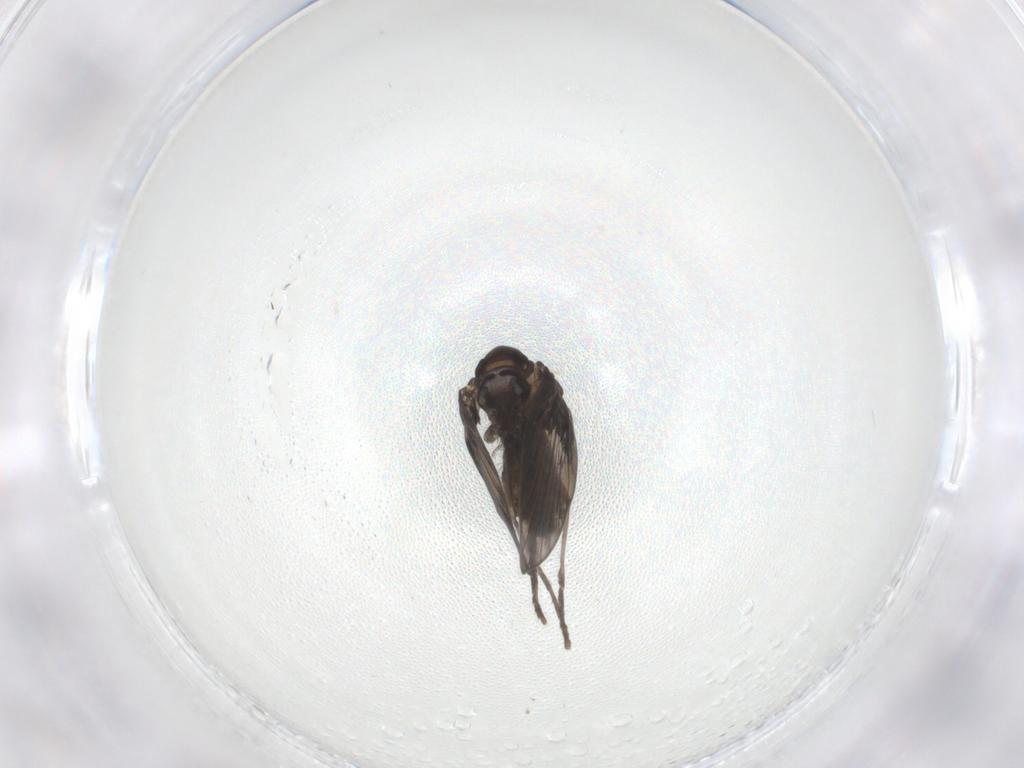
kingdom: Animalia
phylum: Arthropoda
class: Insecta
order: Diptera
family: Psychodidae
